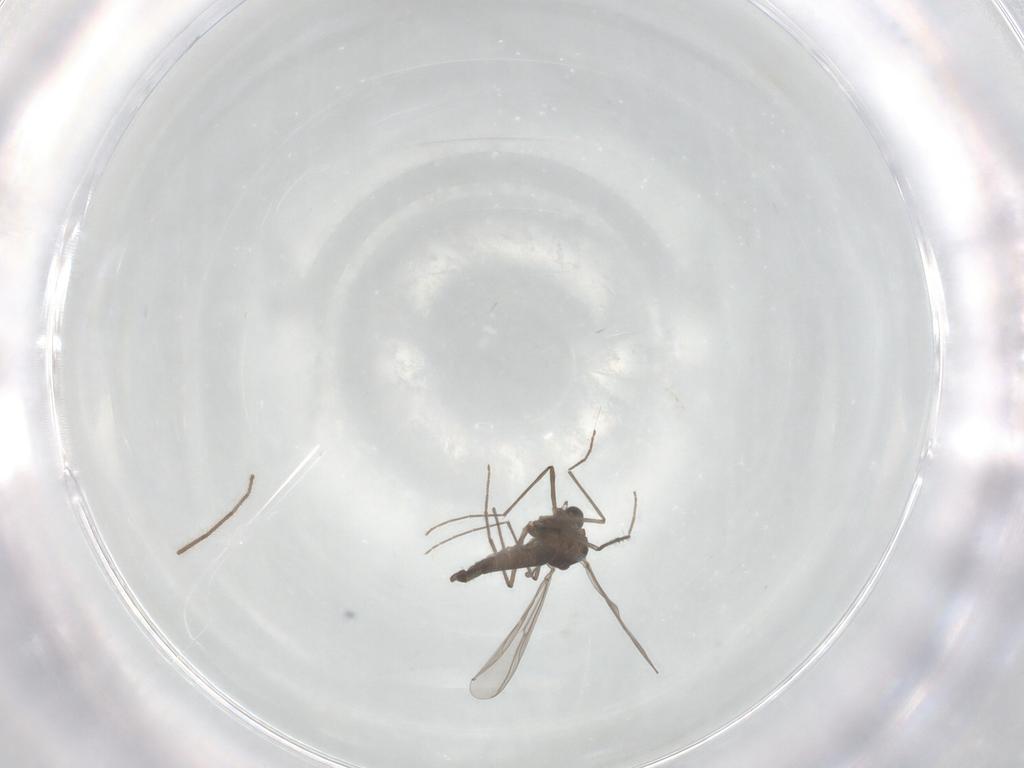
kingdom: Animalia
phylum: Arthropoda
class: Insecta
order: Diptera
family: Chironomidae
